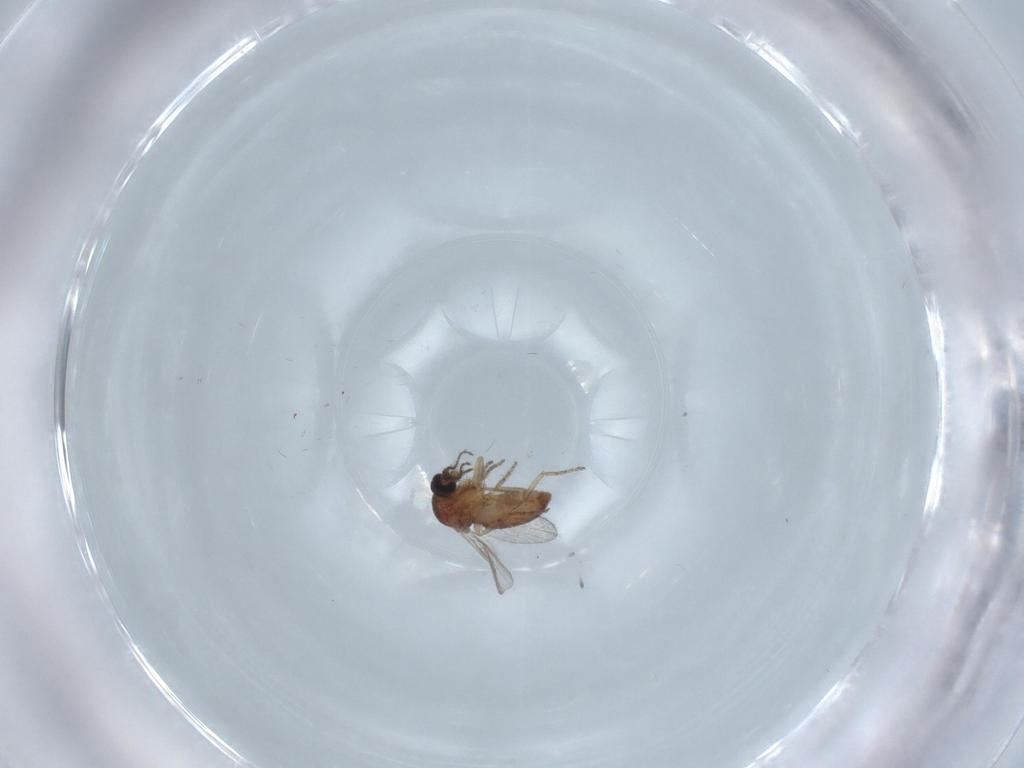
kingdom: Animalia
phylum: Arthropoda
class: Insecta
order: Diptera
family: Ceratopogonidae
